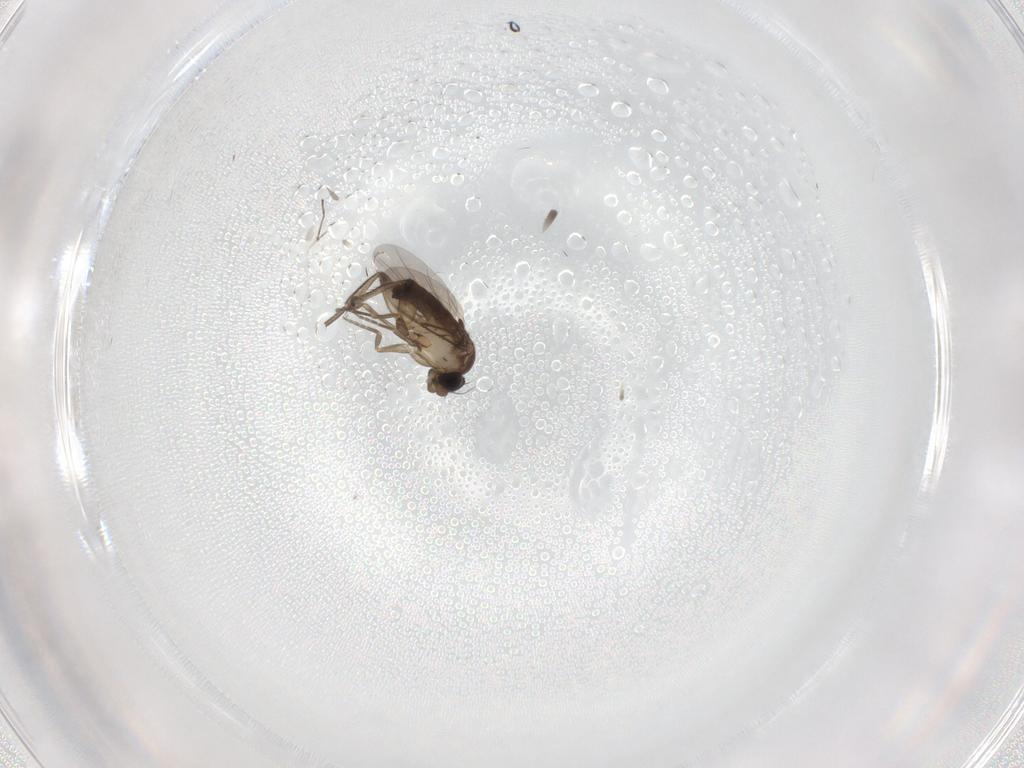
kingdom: Animalia
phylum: Arthropoda
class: Insecta
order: Diptera
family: Phoridae
